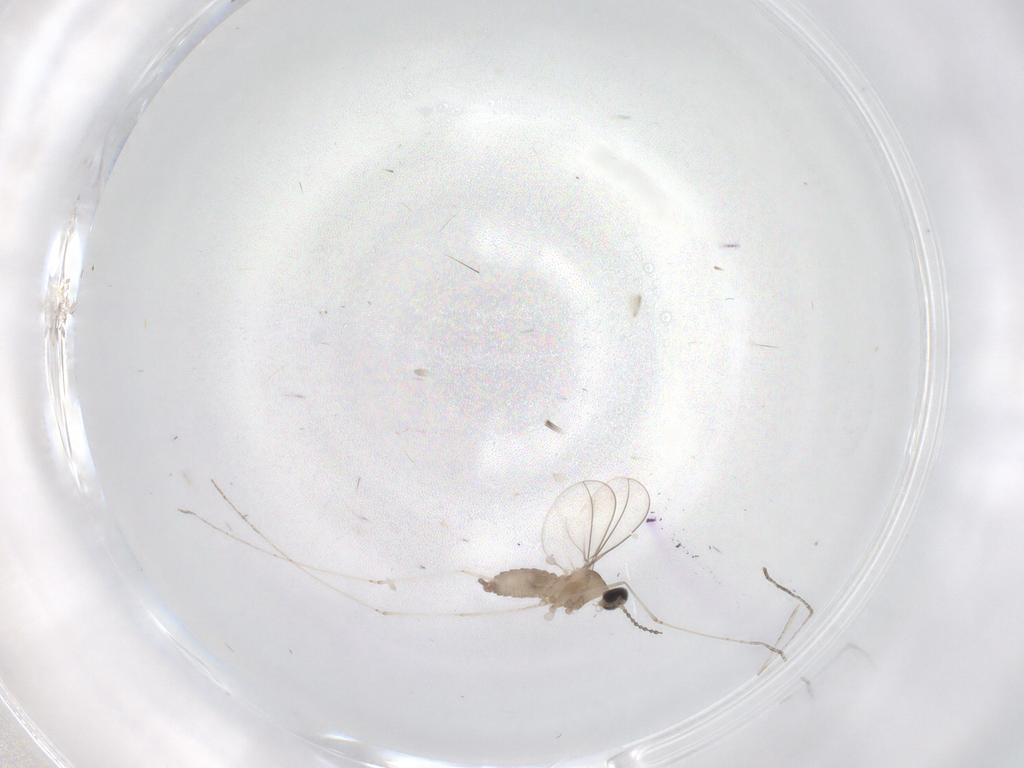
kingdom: Animalia
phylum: Arthropoda
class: Insecta
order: Diptera
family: Cecidomyiidae
